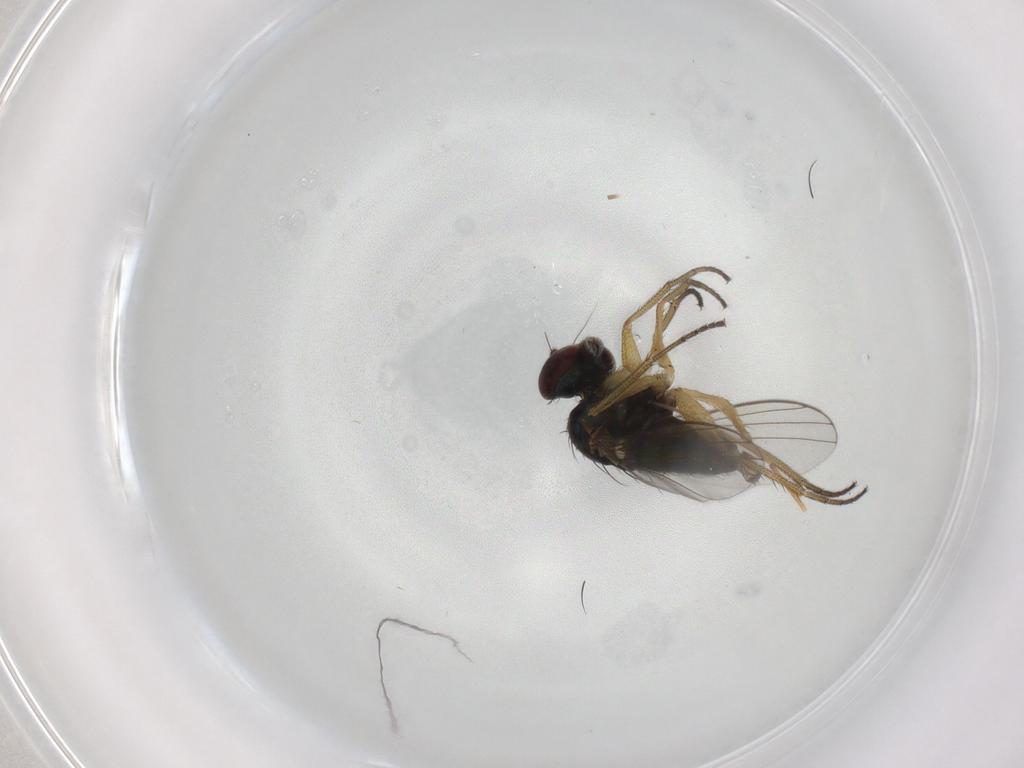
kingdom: Animalia
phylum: Arthropoda
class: Insecta
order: Diptera
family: Dolichopodidae
